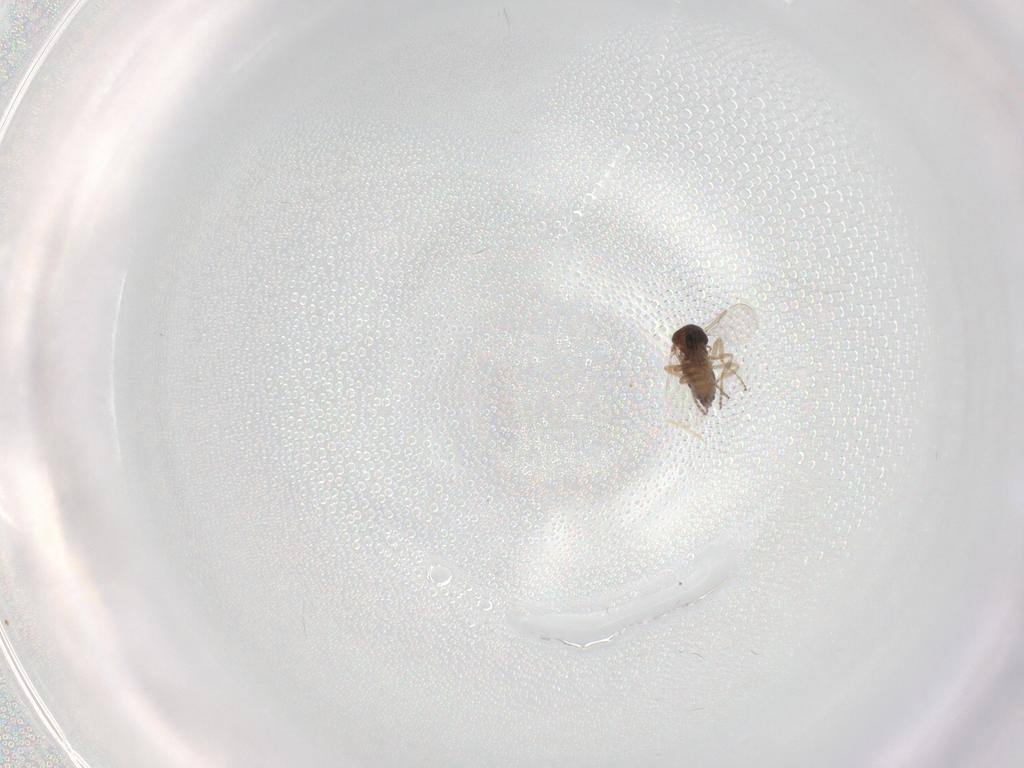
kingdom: Animalia
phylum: Arthropoda
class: Insecta
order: Diptera
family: Ceratopogonidae
